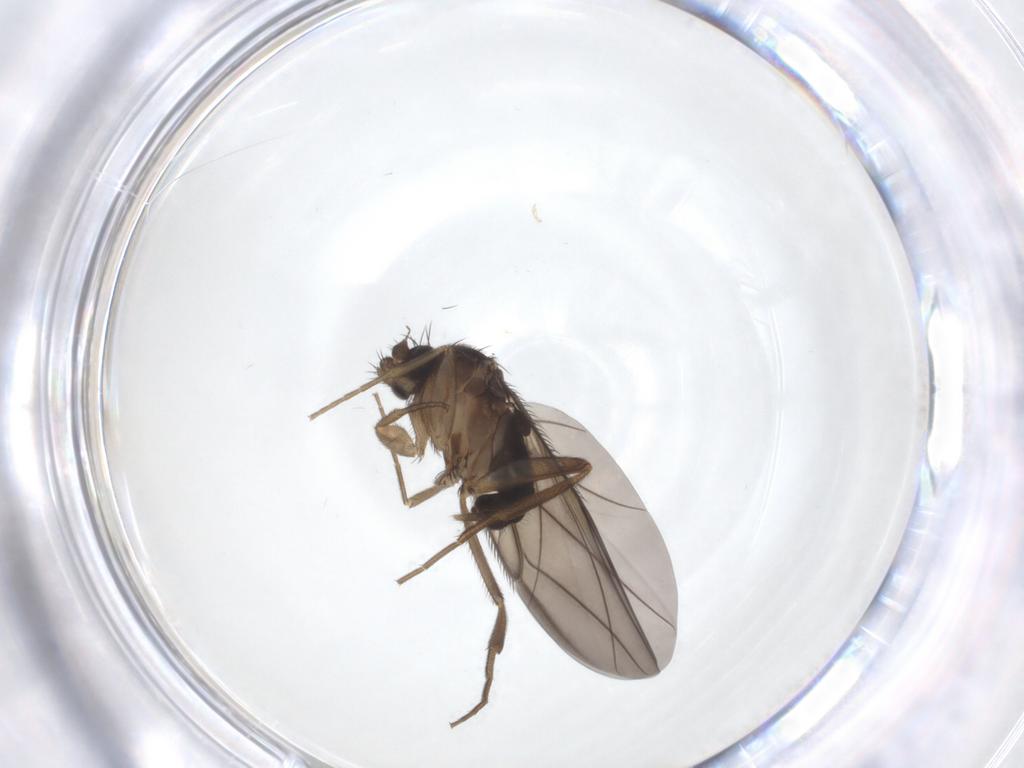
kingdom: Animalia
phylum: Arthropoda
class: Insecta
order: Diptera
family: Phoridae
